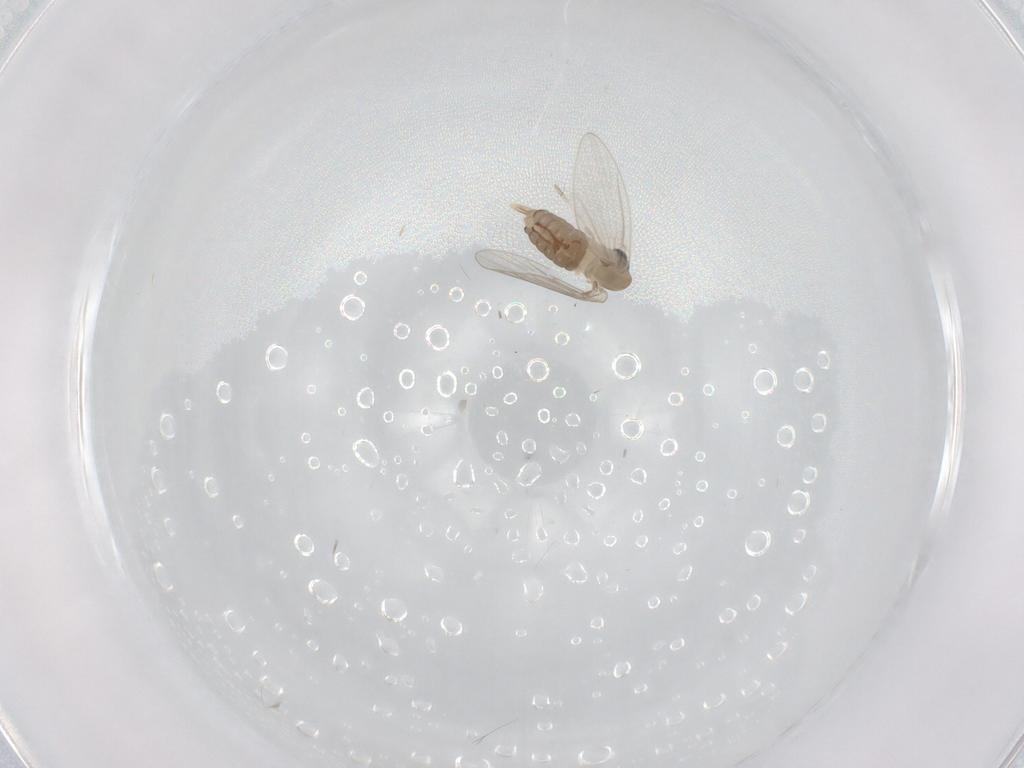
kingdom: Animalia
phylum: Arthropoda
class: Insecta
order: Diptera
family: Psychodidae
